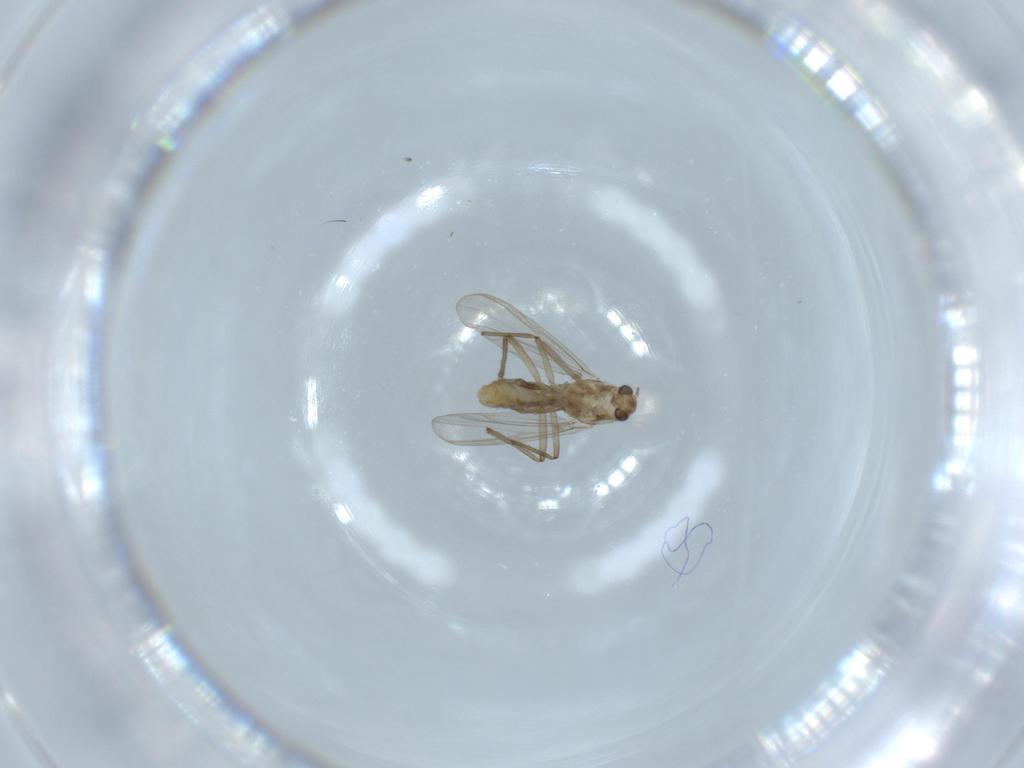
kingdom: Animalia
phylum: Arthropoda
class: Insecta
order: Diptera
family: Chironomidae
